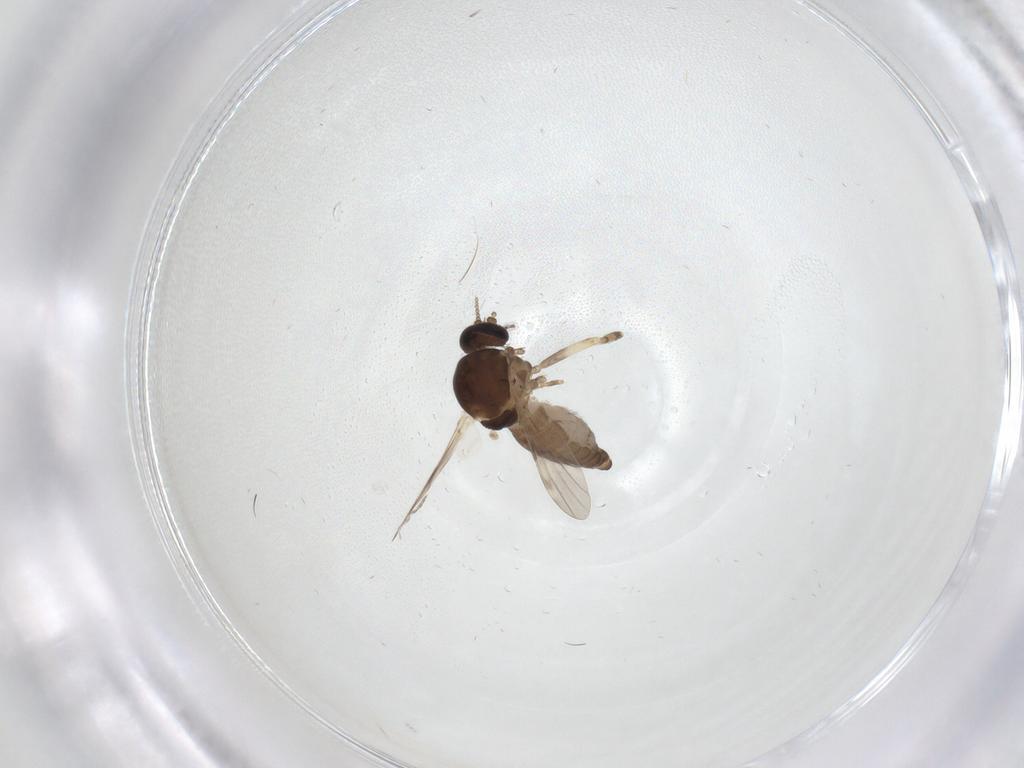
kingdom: Animalia
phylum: Arthropoda
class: Insecta
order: Diptera
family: Ceratopogonidae
